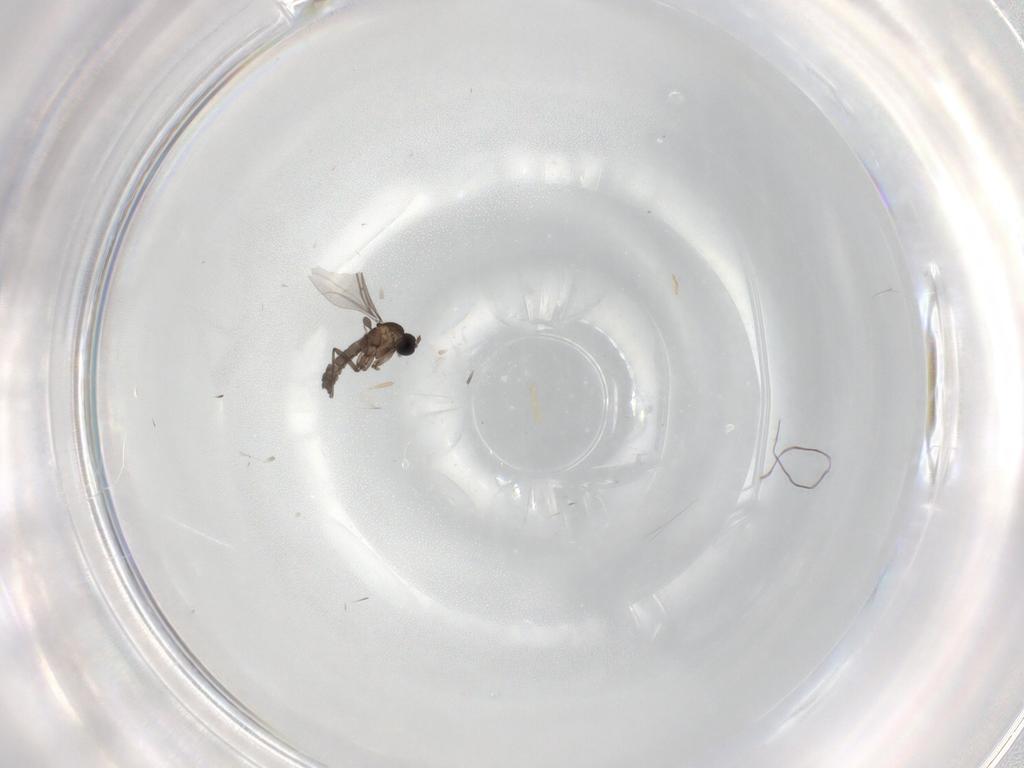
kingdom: Animalia
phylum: Arthropoda
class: Insecta
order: Diptera
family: Sciaridae
